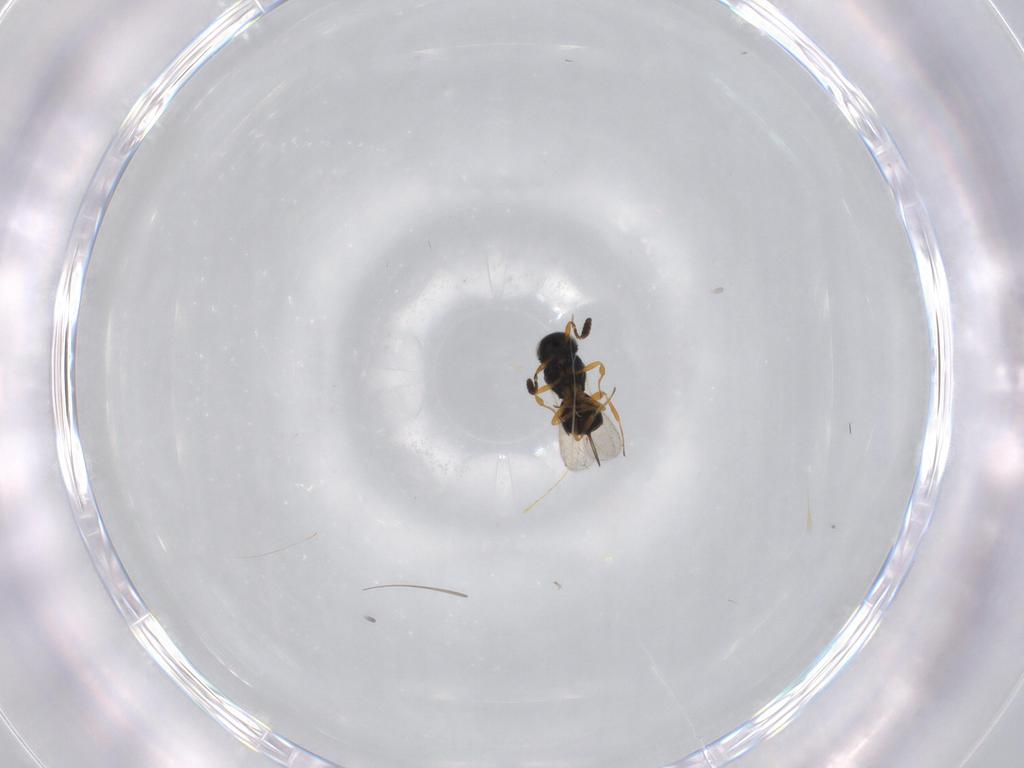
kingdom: Animalia
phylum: Arthropoda
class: Insecta
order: Hymenoptera
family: Scelionidae
